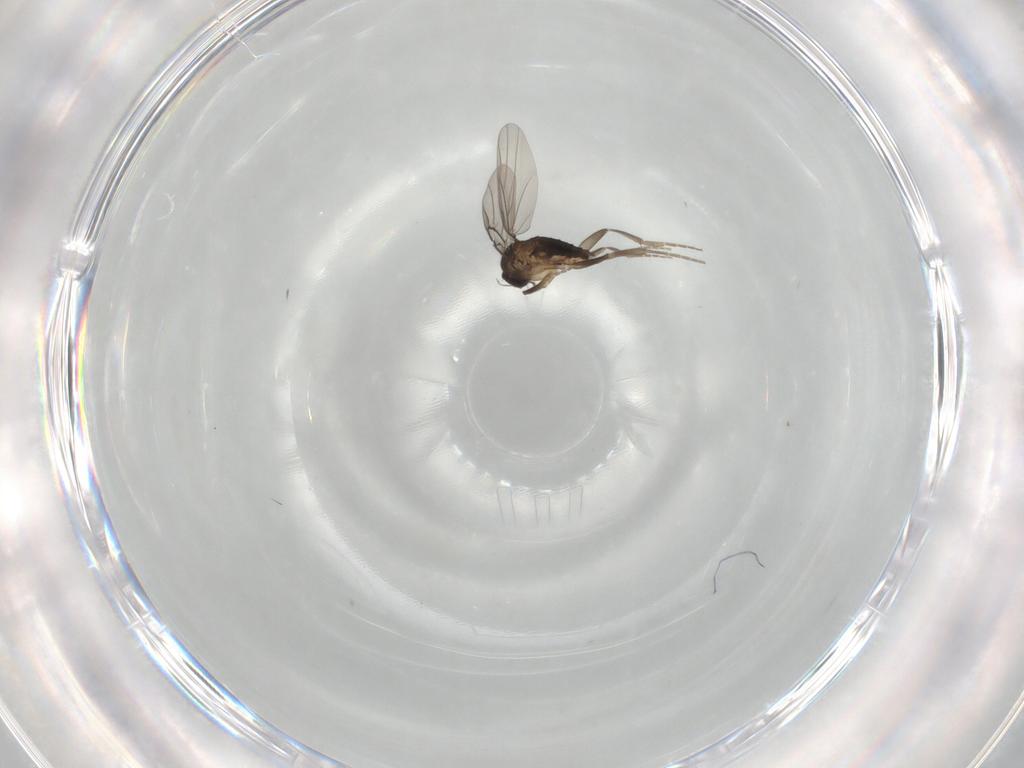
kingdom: Animalia
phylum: Arthropoda
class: Insecta
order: Diptera
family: Phoridae
